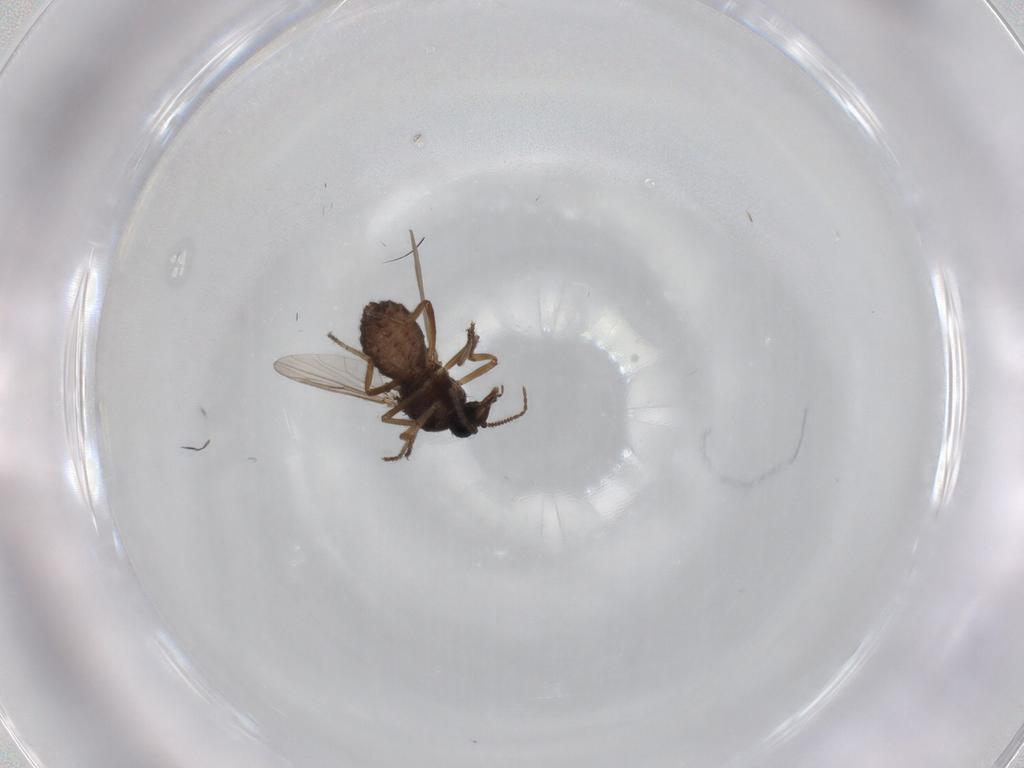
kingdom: Animalia
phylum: Arthropoda
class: Insecta
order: Diptera
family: Ceratopogonidae
